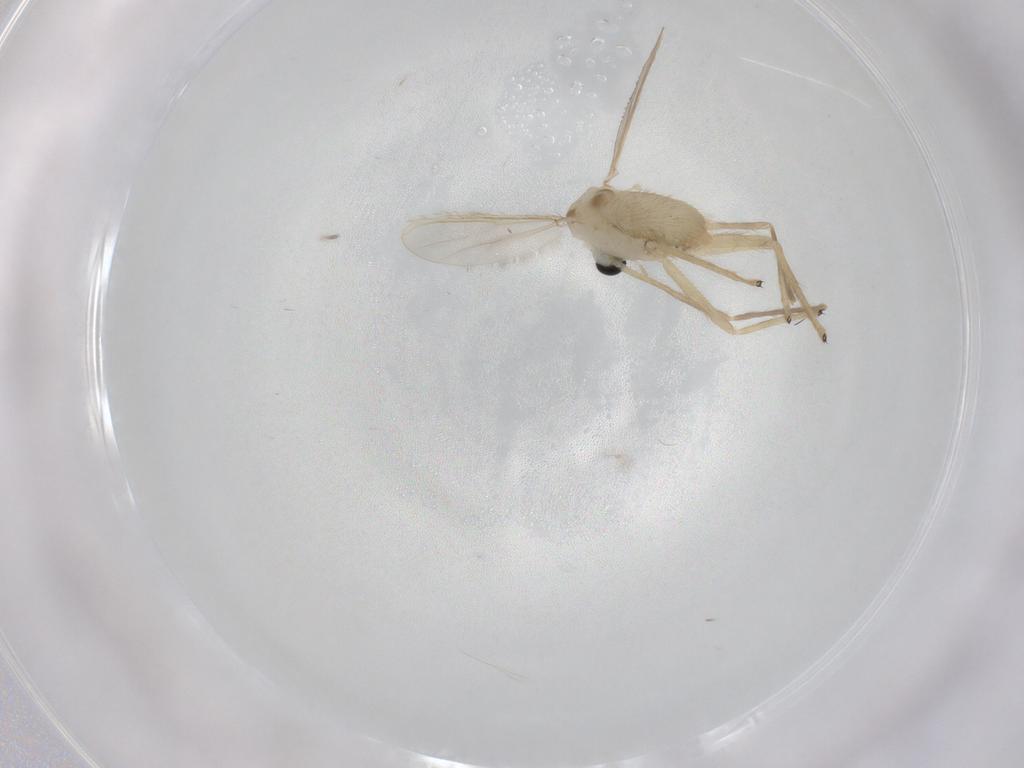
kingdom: Animalia
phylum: Arthropoda
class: Insecta
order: Diptera
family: Chironomidae
